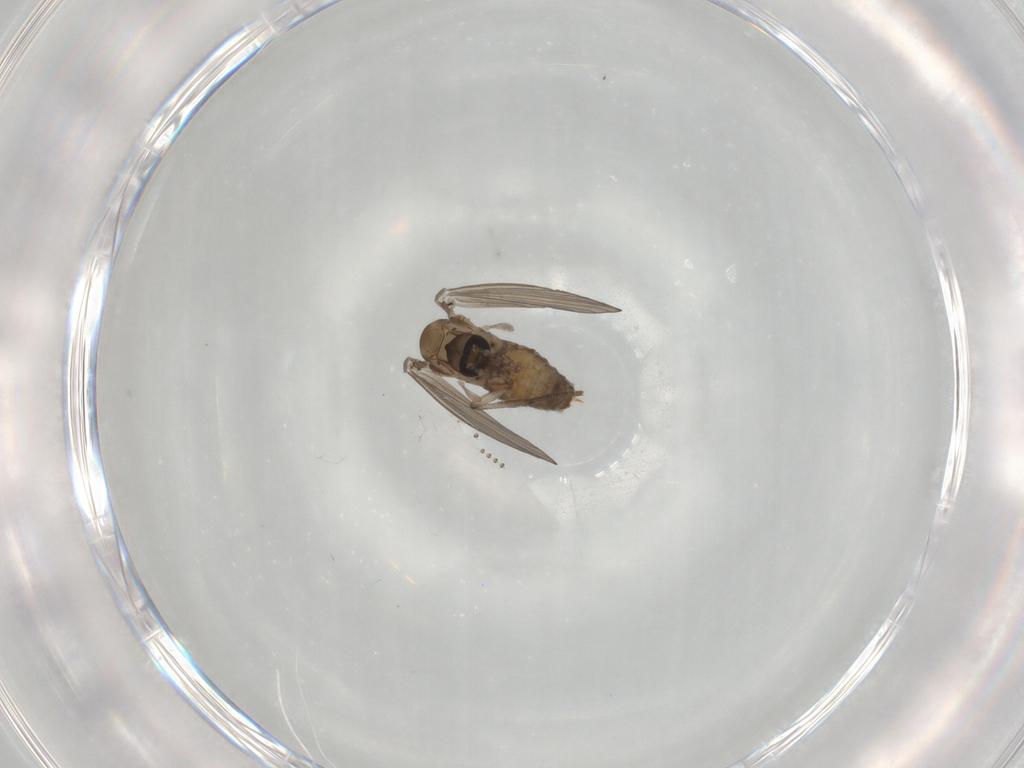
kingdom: Animalia
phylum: Arthropoda
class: Insecta
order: Diptera
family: Psychodidae
